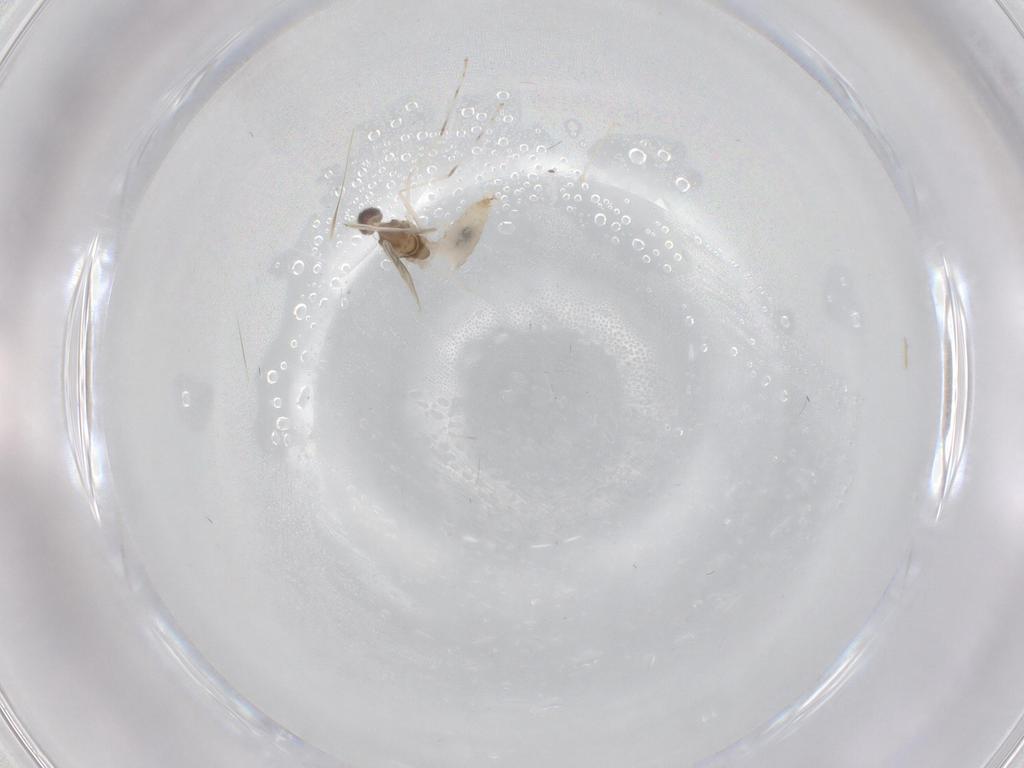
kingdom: Animalia
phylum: Arthropoda
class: Insecta
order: Diptera
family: Cecidomyiidae
